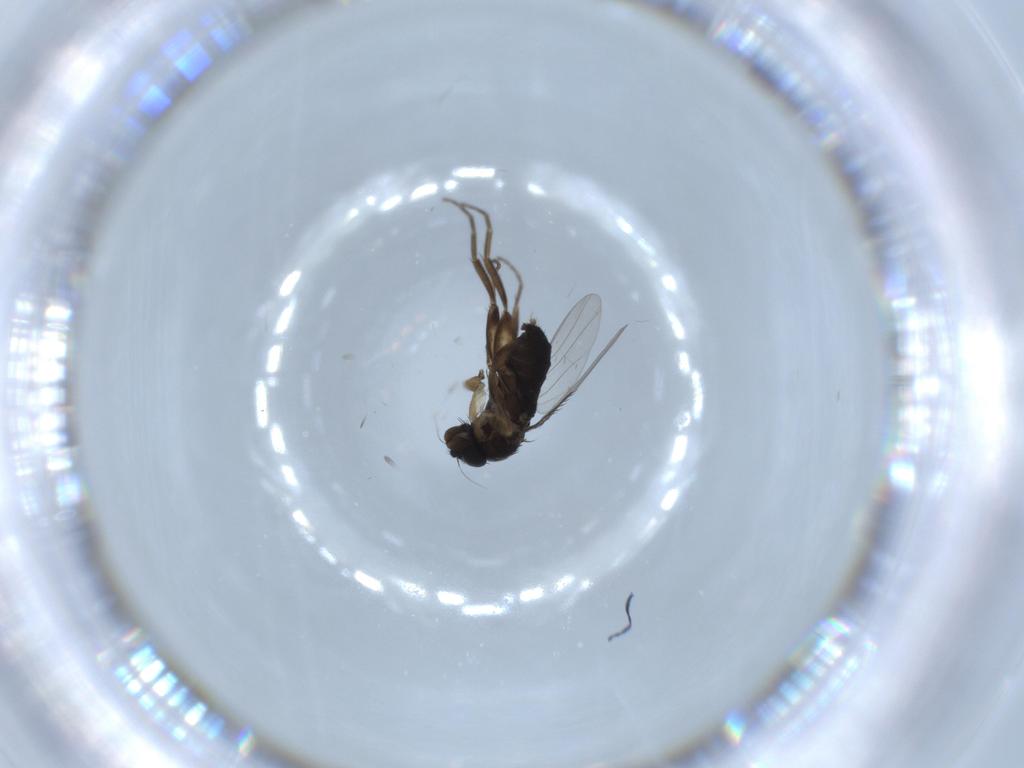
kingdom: Animalia
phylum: Arthropoda
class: Insecta
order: Diptera
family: Phoridae
